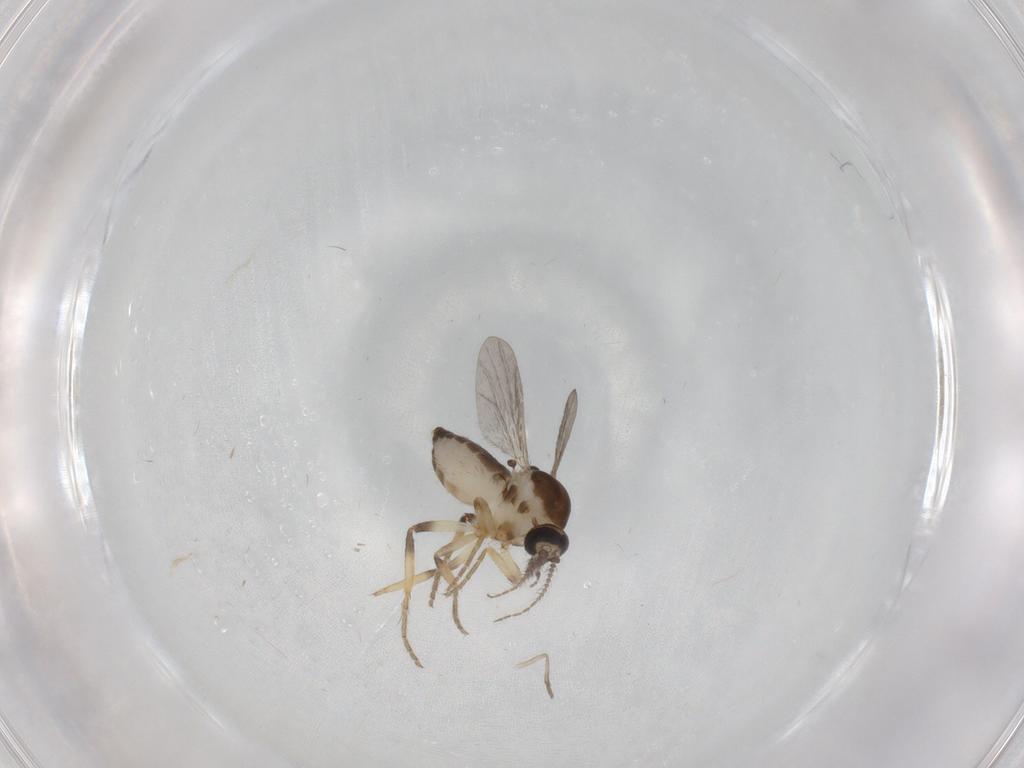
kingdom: Animalia
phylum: Arthropoda
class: Insecta
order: Diptera
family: Ceratopogonidae
